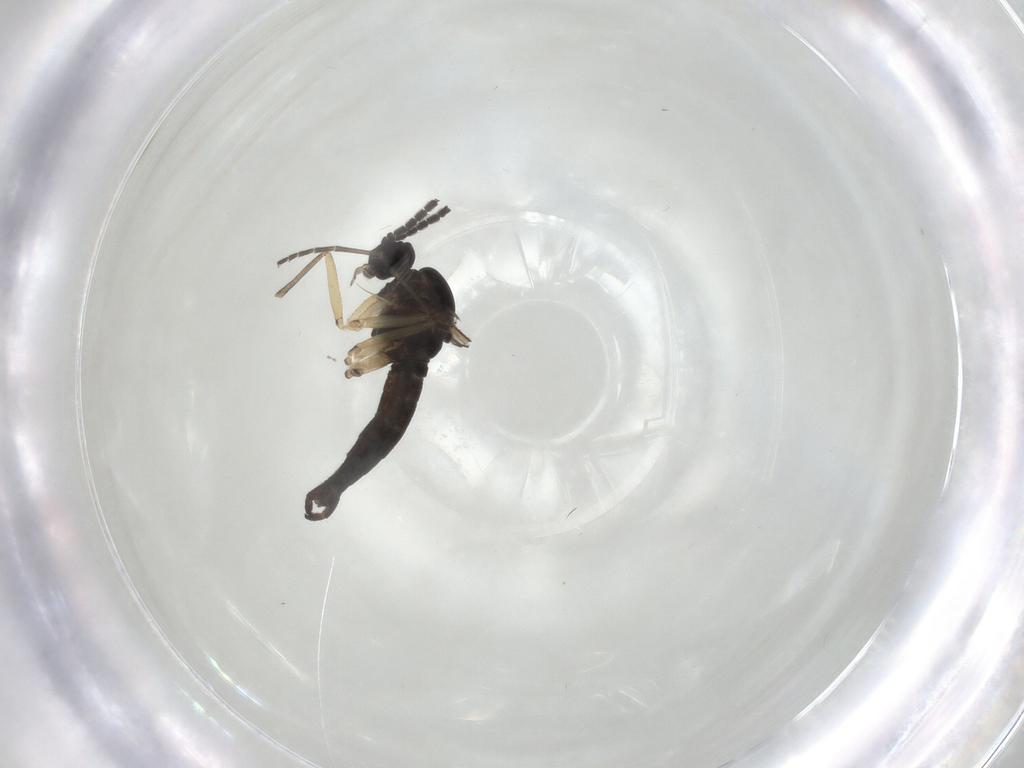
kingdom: Animalia
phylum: Arthropoda
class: Insecta
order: Diptera
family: Sciaridae
